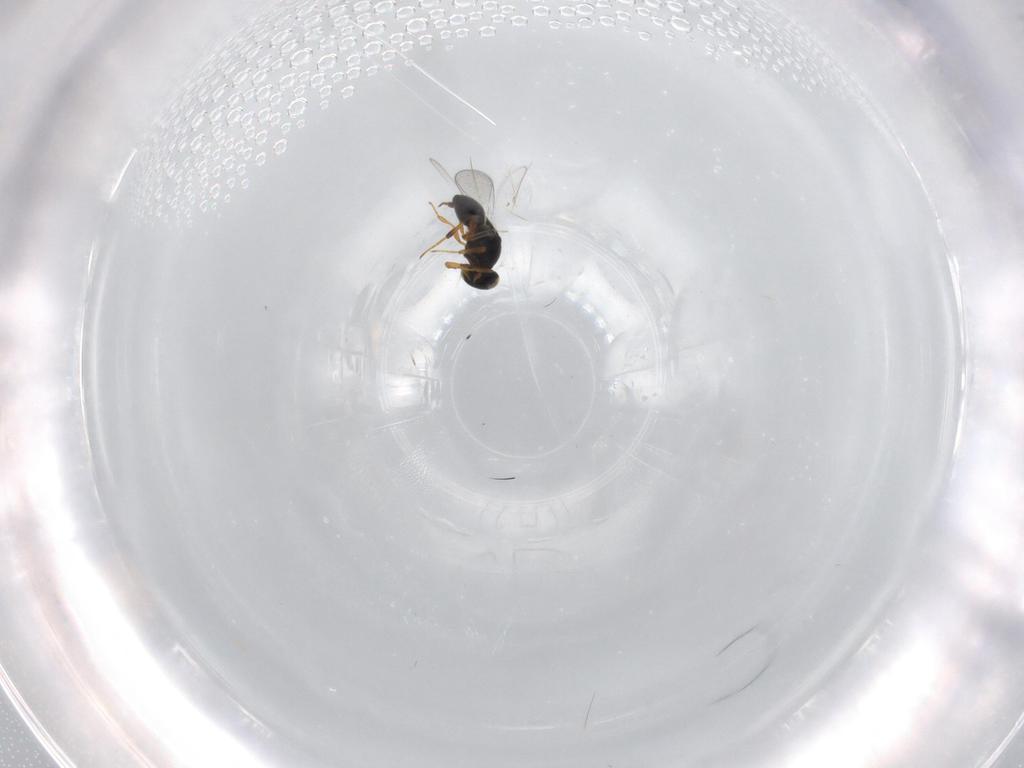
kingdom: Animalia
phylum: Arthropoda
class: Insecta
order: Hymenoptera
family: Platygastridae
